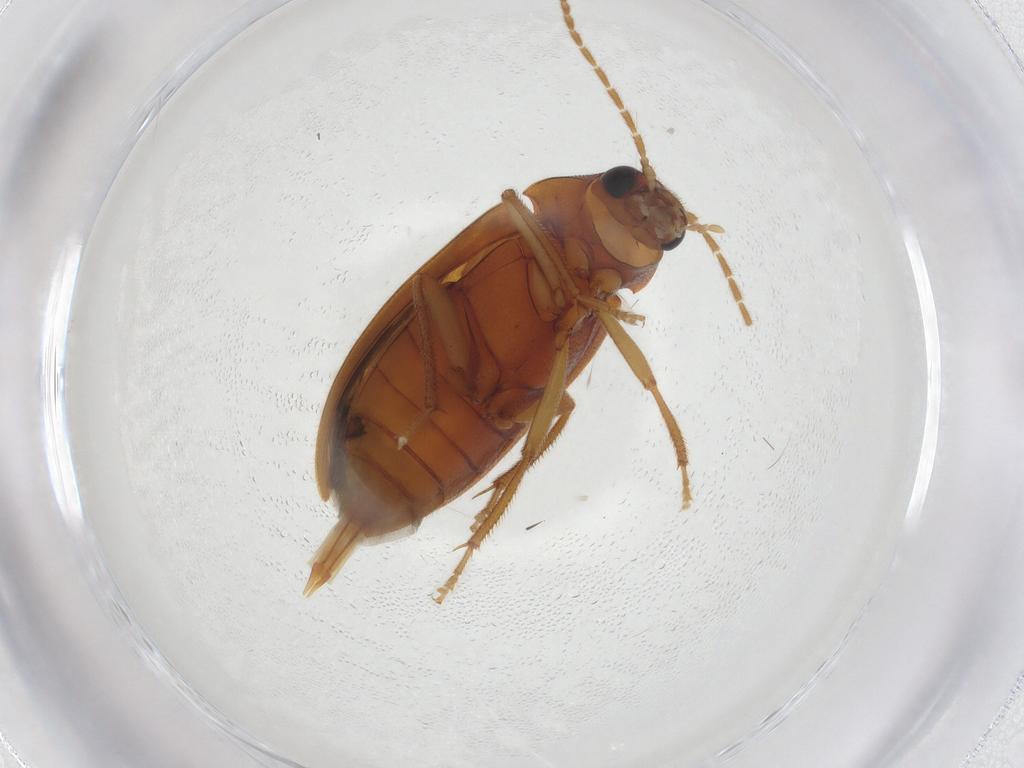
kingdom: Animalia
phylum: Arthropoda
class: Insecta
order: Coleoptera
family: Ptilodactylidae
